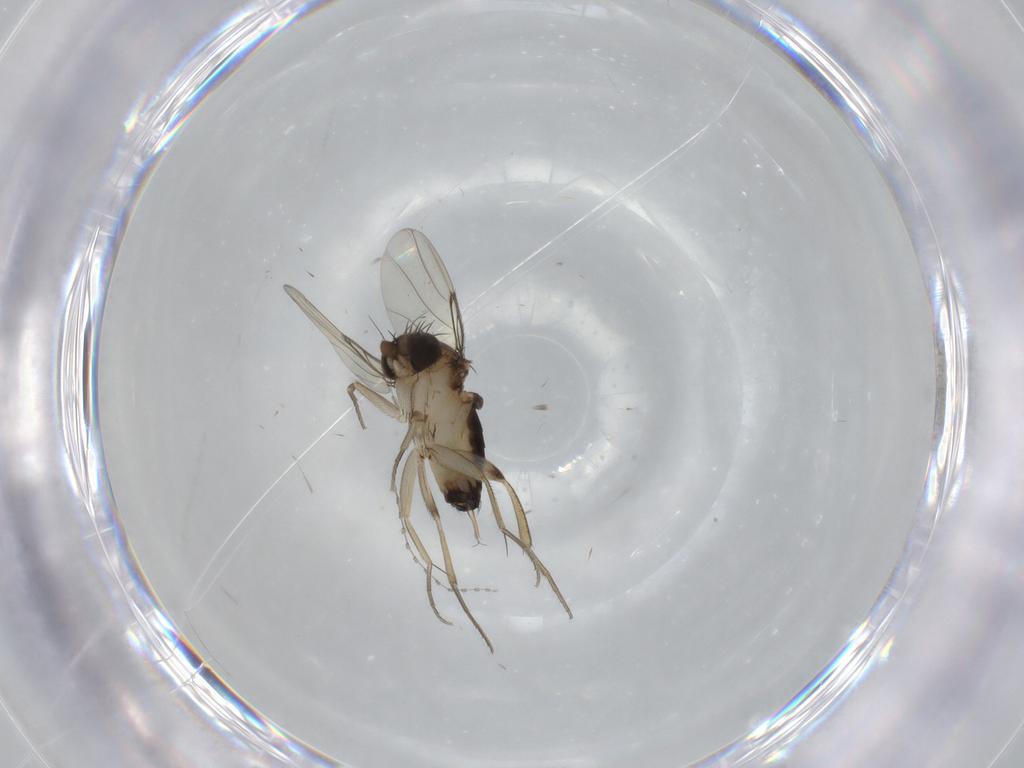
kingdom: Animalia
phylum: Arthropoda
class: Insecta
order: Diptera
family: Phoridae
